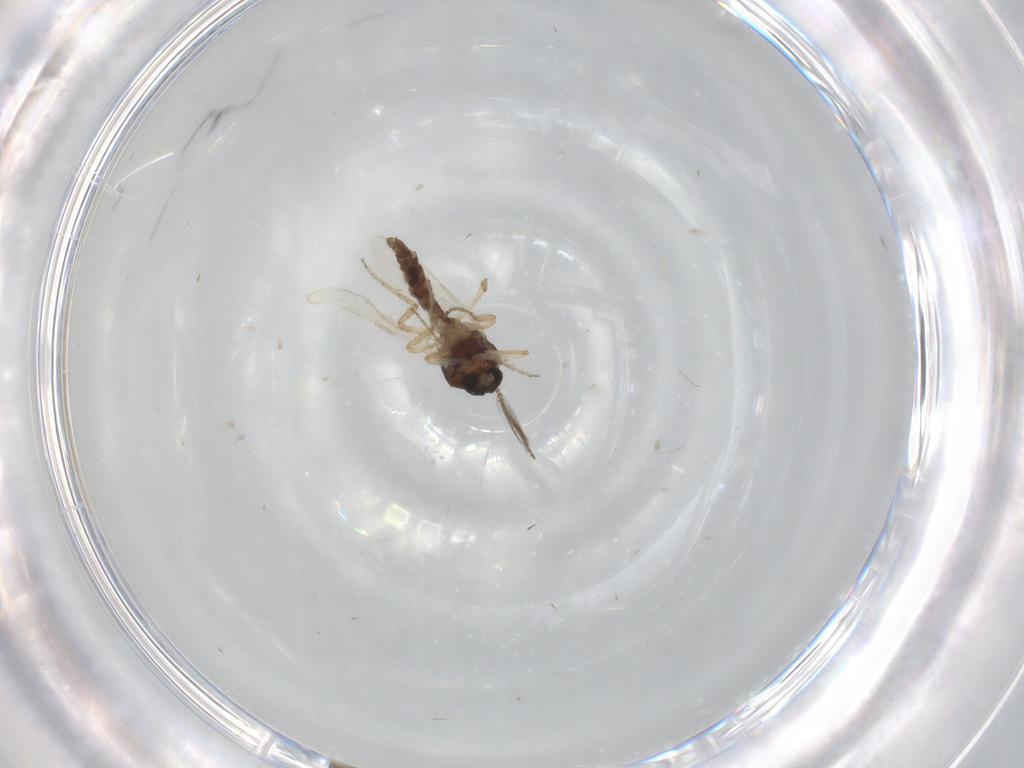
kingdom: Animalia
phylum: Arthropoda
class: Insecta
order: Diptera
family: Ceratopogonidae
